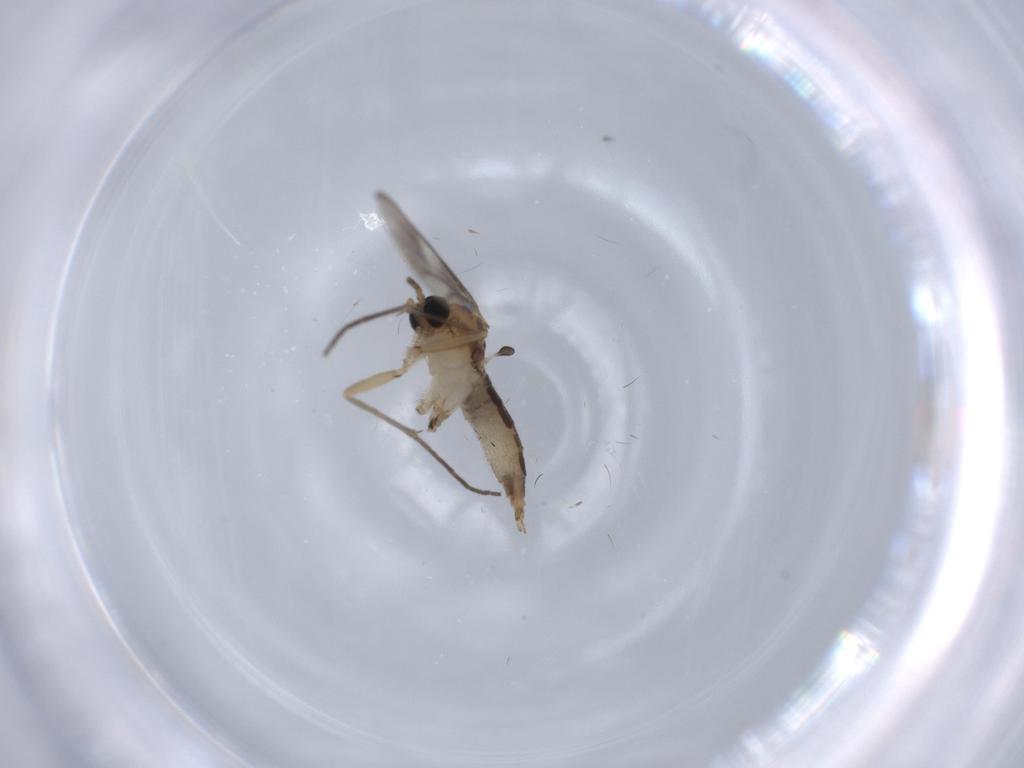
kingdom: Animalia
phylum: Arthropoda
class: Insecta
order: Diptera
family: Sciaridae
